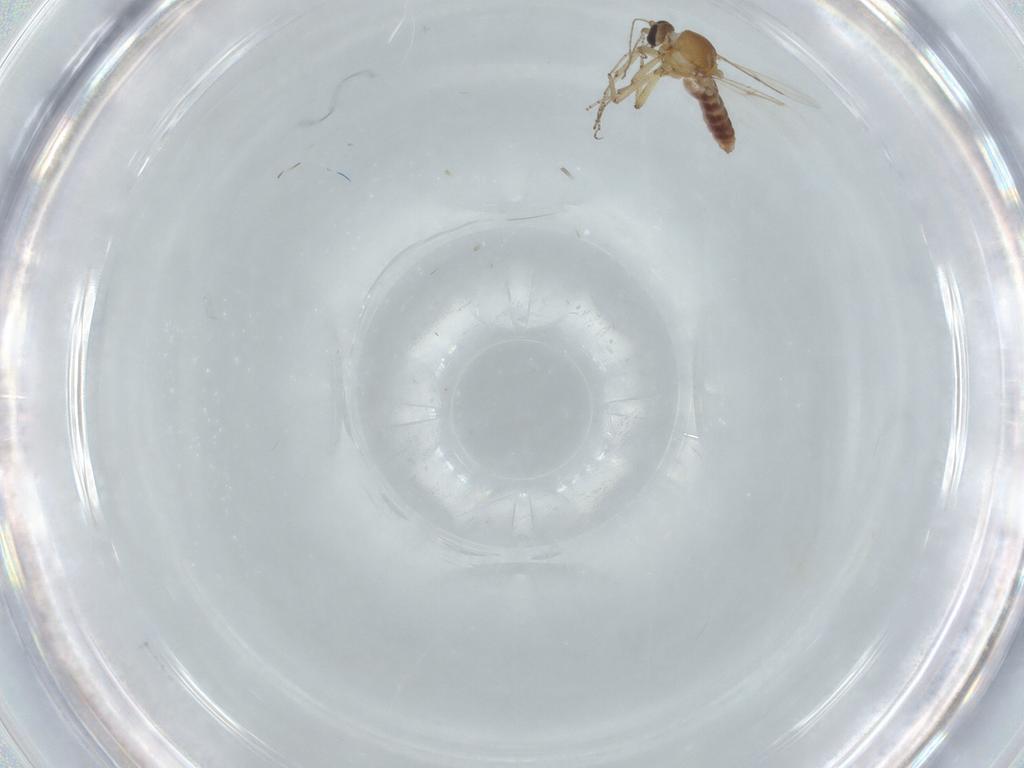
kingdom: Animalia
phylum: Arthropoda
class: Insecta
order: Diptera
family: Ceratopogonidae
